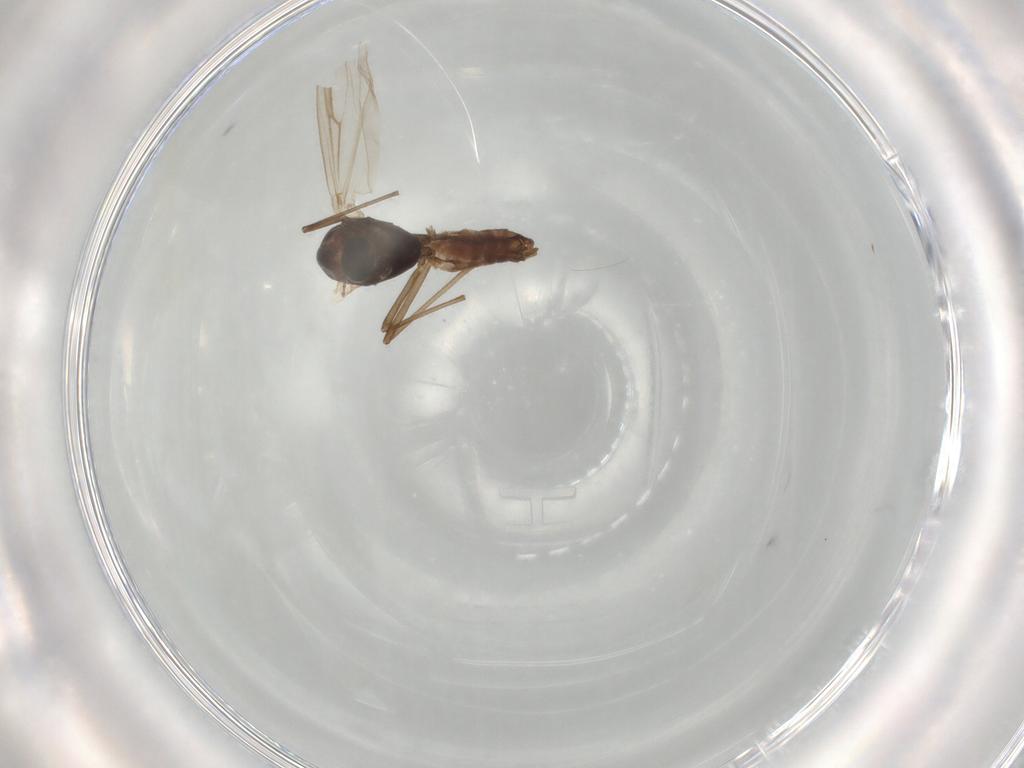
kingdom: Animalia
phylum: Arthropoda
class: Insecta
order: Diptera
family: Chironomidae
